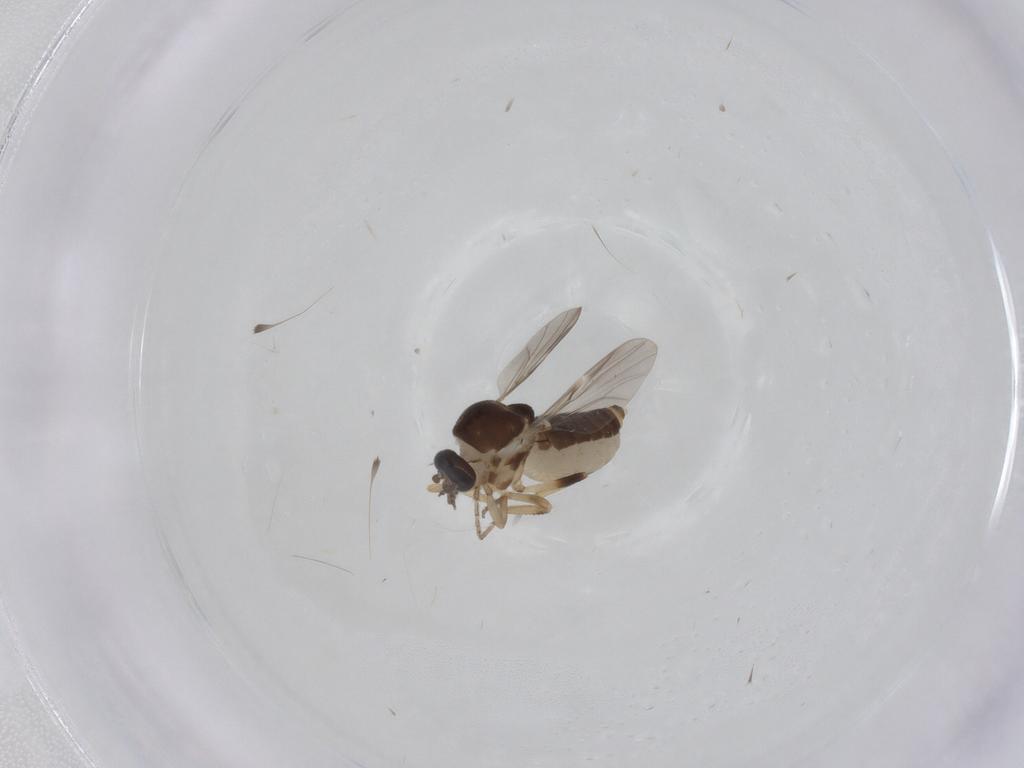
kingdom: Animalia
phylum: Arthropoda
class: Insecta
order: Diptera
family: Ceratopogonidae
